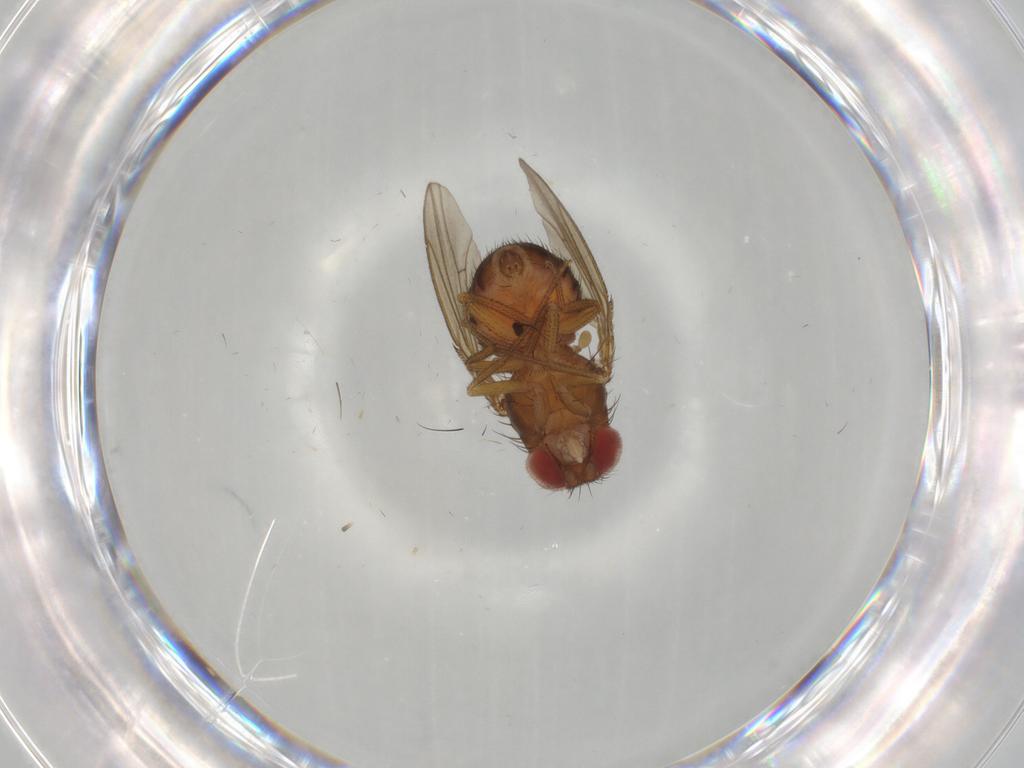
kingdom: Animalia
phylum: Arthropoda
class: Insecta
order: Diptera
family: Drosophilidae
